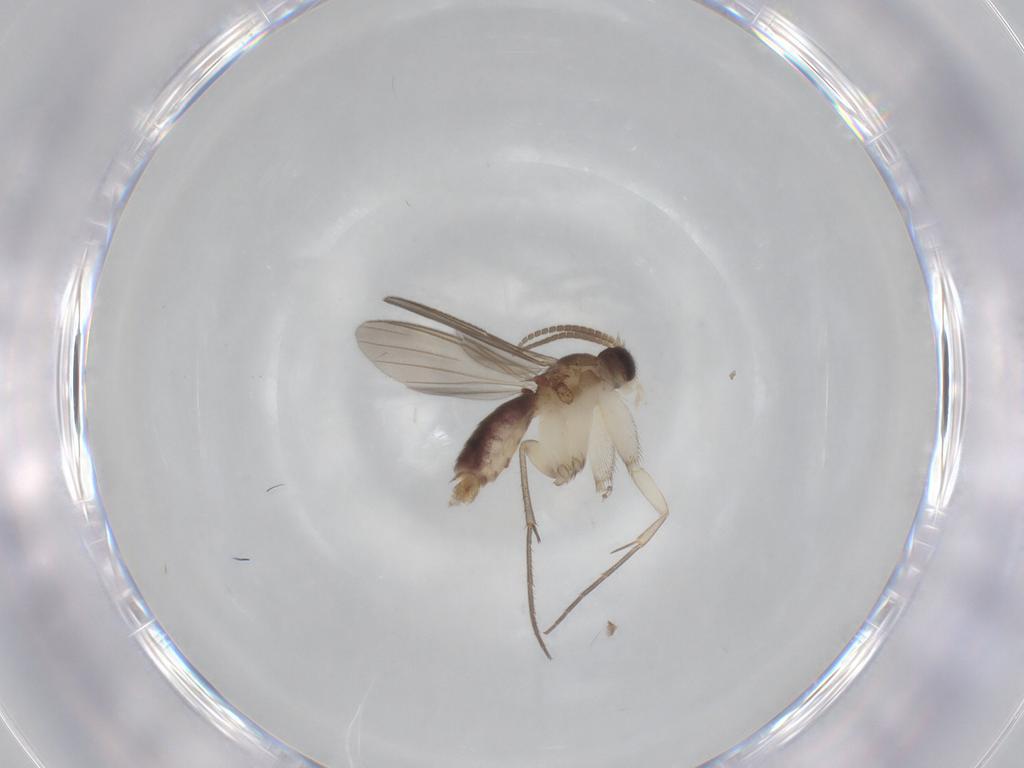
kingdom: Animalia
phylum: Arthropoda
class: Insecta
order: Diptera
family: Psychodidae
